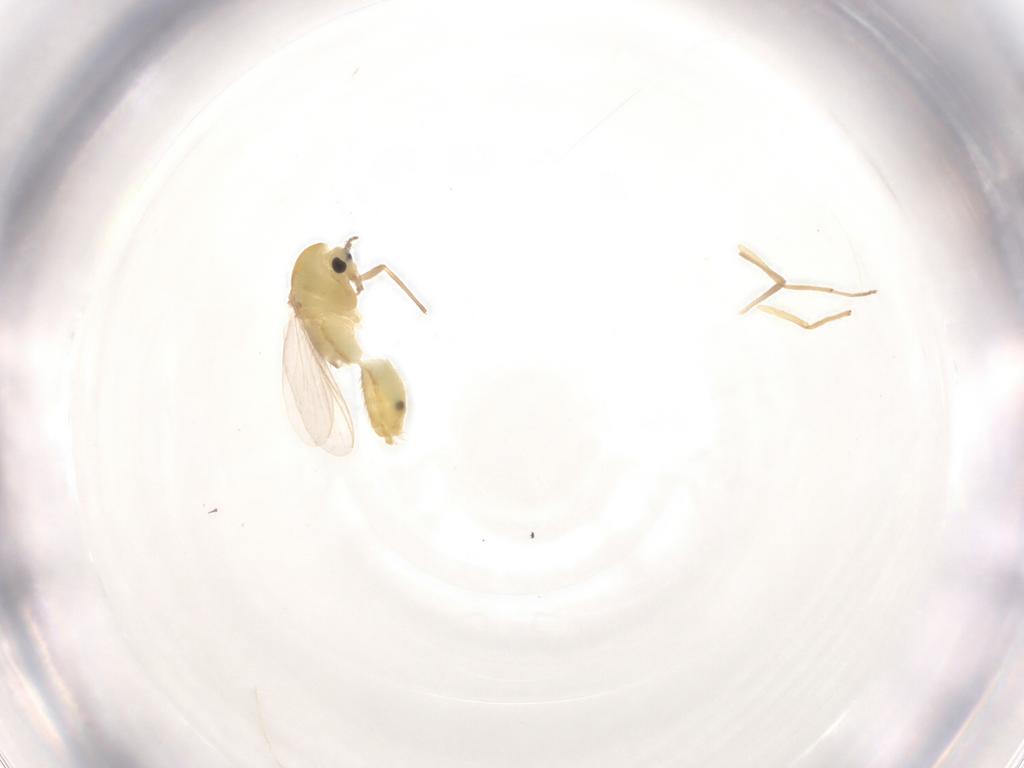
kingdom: Animalia
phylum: Arthropoda
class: Insecta
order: Diptera
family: Chironomidae
